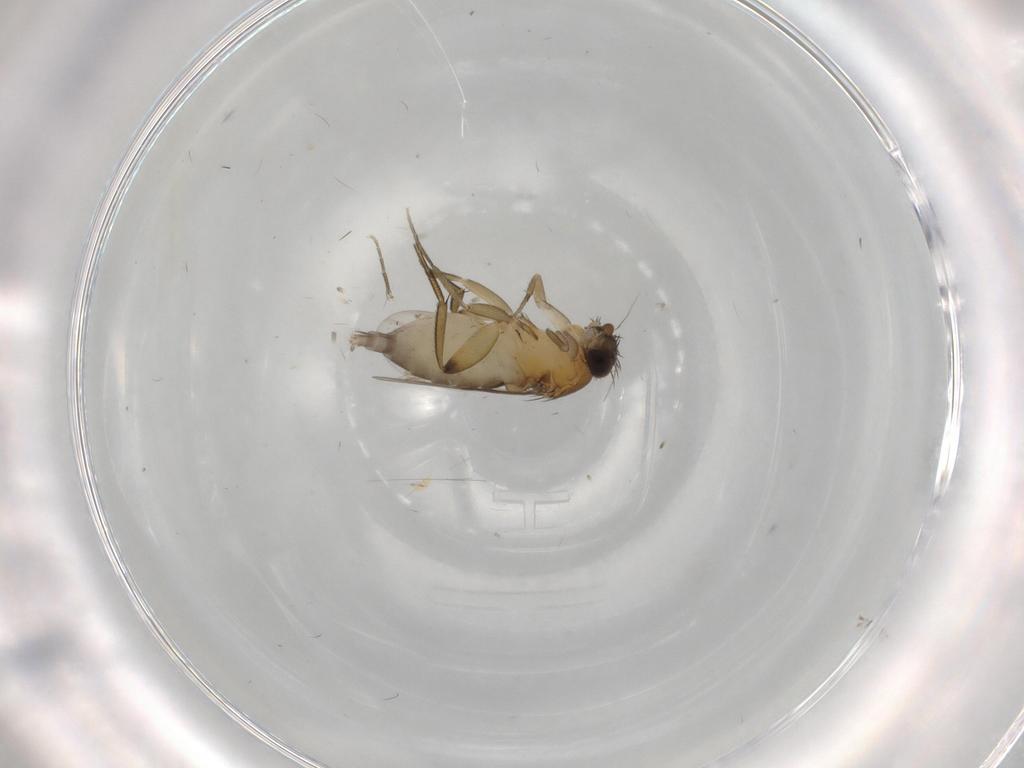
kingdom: Animalia
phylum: Arthropoda
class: Insecta
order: Diptera
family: Phoridae
